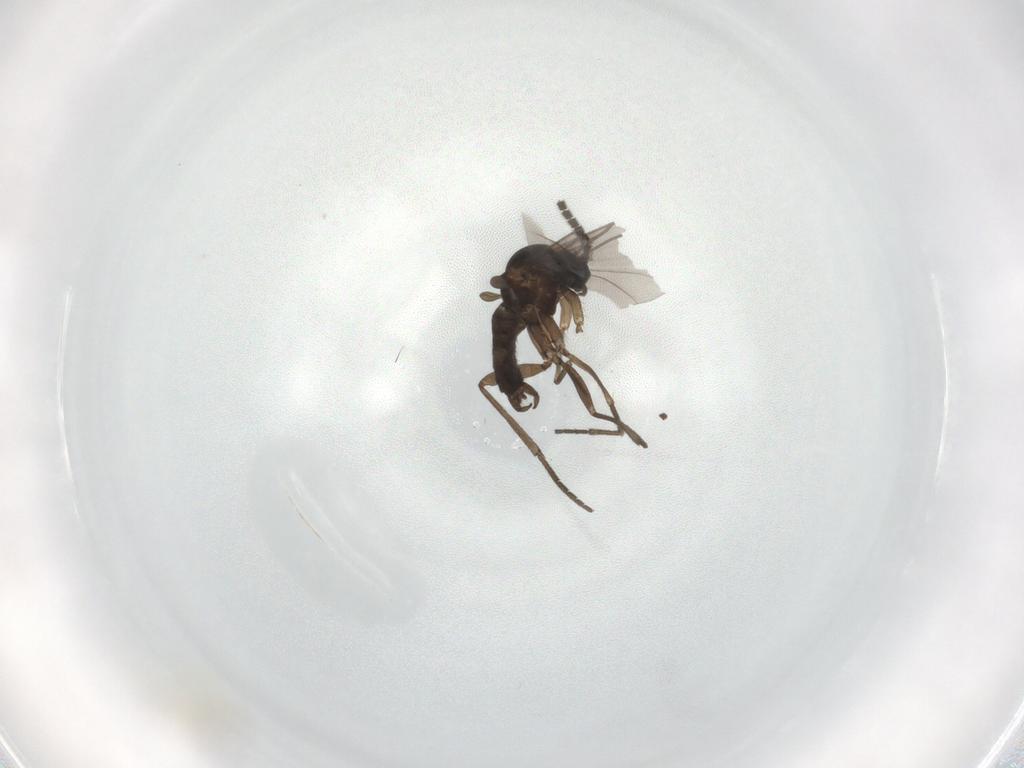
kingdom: Animalia
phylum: Arthropoda
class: Insecta
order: Diptera
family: Sciaridae
